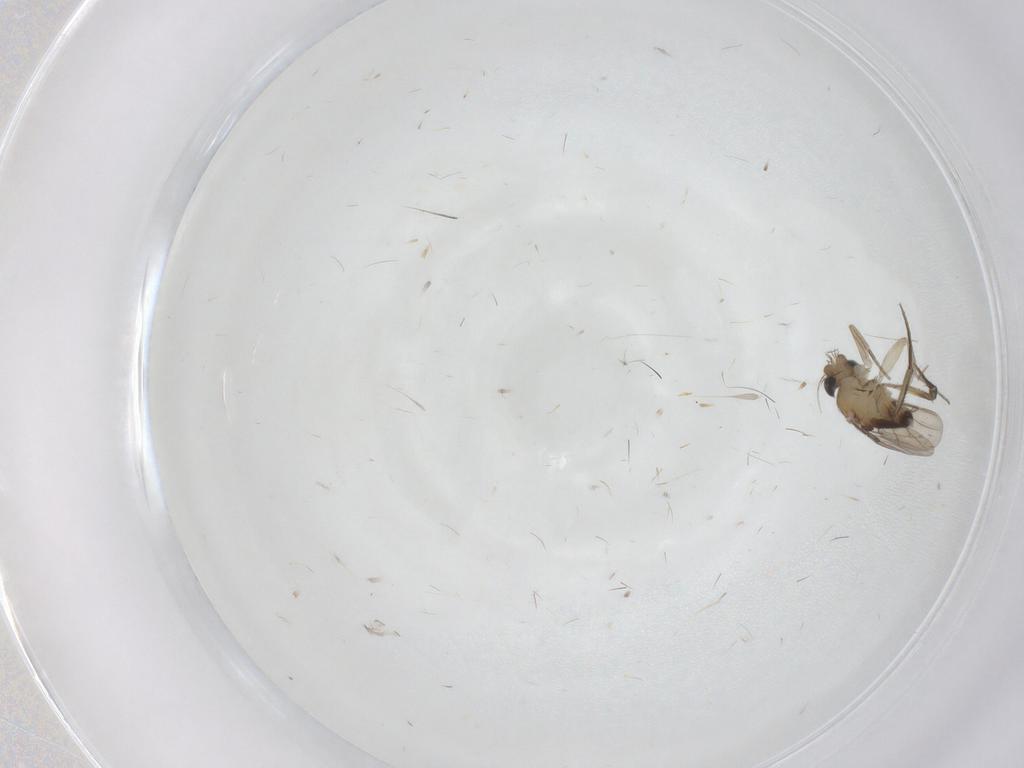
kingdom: Animalia
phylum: Arthropoda
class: Insecta
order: Diptera
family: Phoridae
